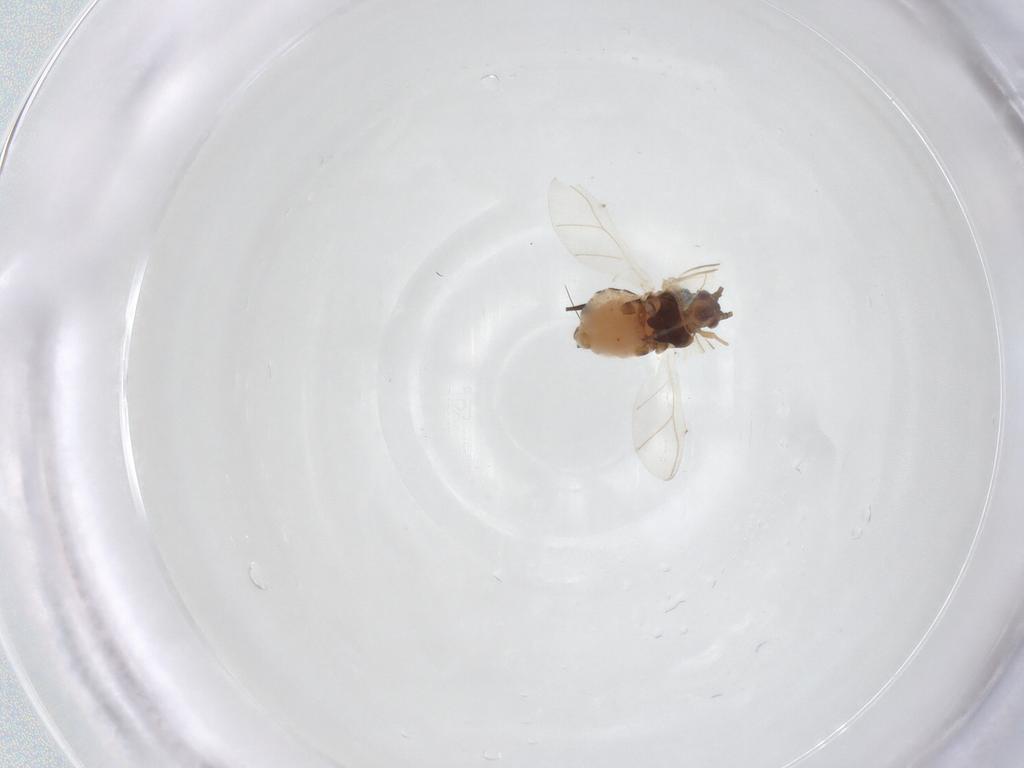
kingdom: Animalia
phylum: Arthropoda
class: Insecta
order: Hemiptera
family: Aphididae
